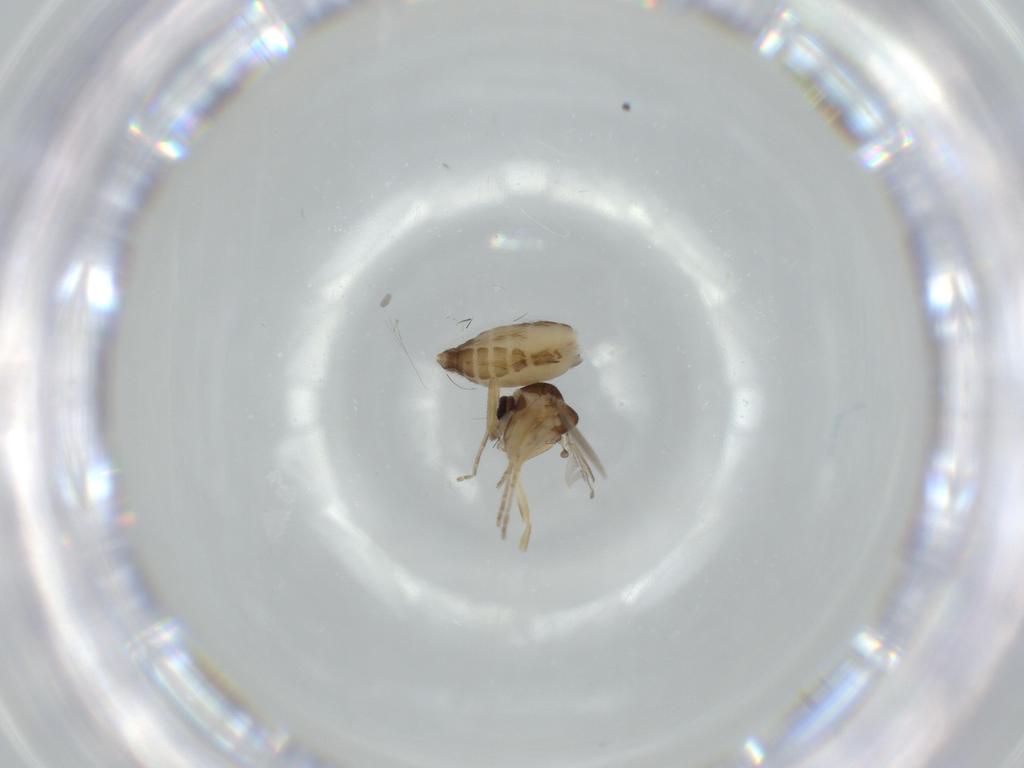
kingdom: Animalia
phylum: Arthropoda
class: Insecta
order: Diptera
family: Ceratopogonidae
